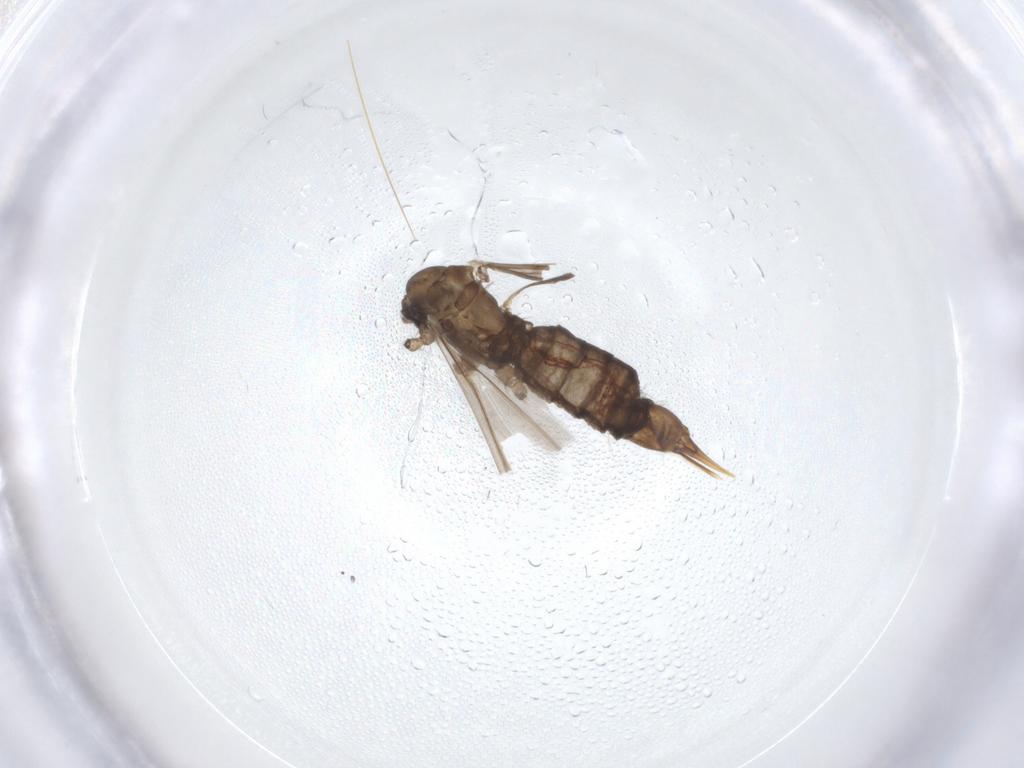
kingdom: Animalia
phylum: Arthropoda
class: Insecta
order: Diptera
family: Limoniidae
